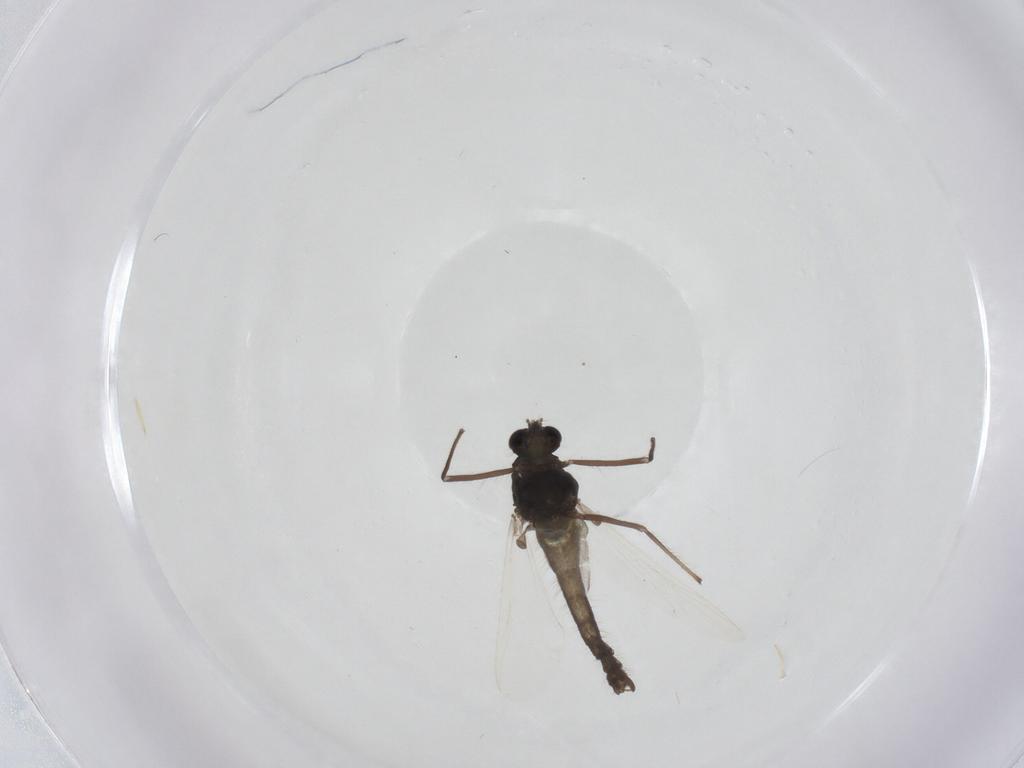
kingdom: Animalia
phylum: Arthropoda
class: Insecta
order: Diptera
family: Chironomidae
